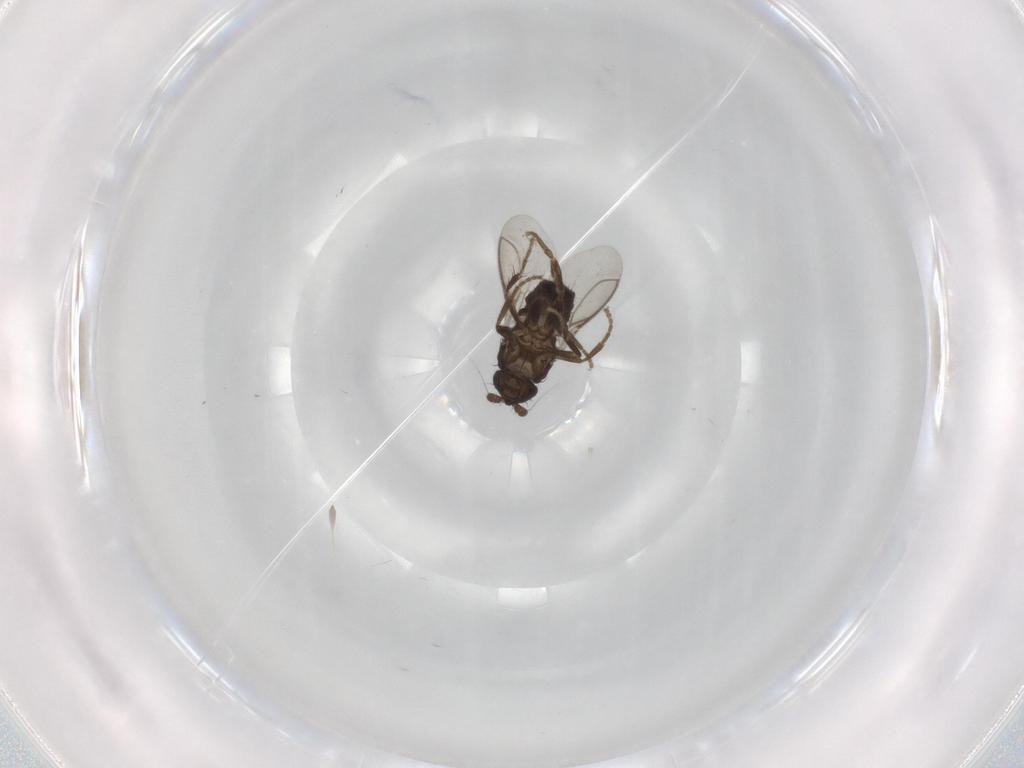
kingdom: Animalia
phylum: Arthropoda
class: Insecta
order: Diptera
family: Sphaeroceridae
